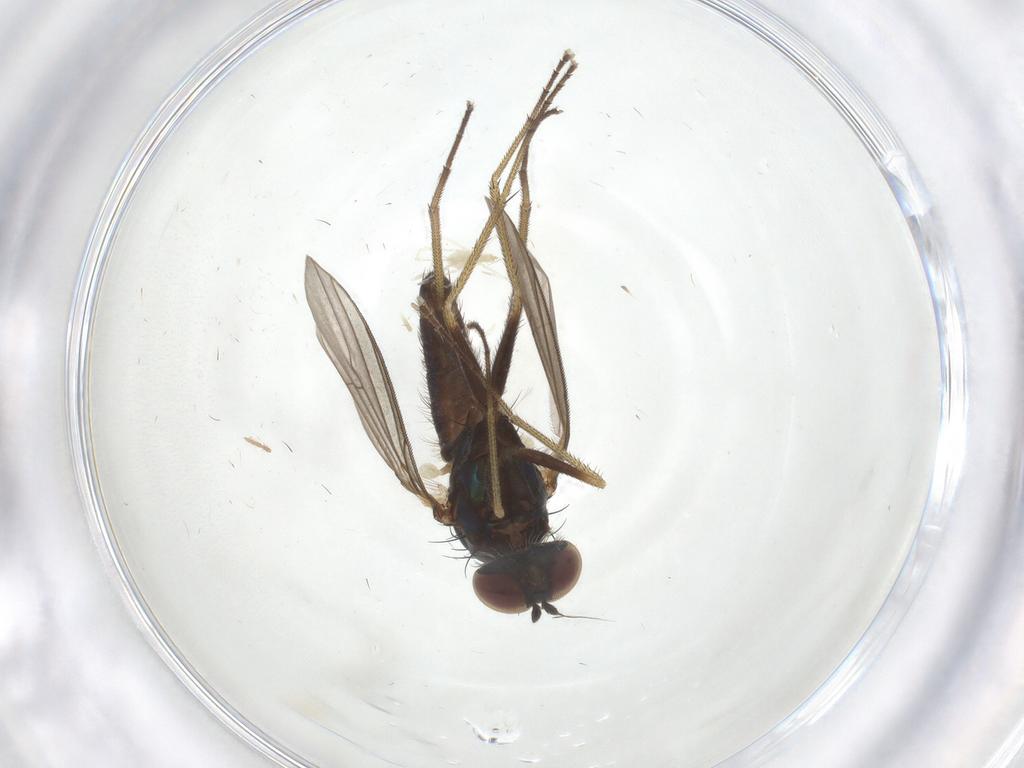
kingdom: Animalia
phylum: Arthropoda
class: Insecta
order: Diptera
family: Dolichopodidae
